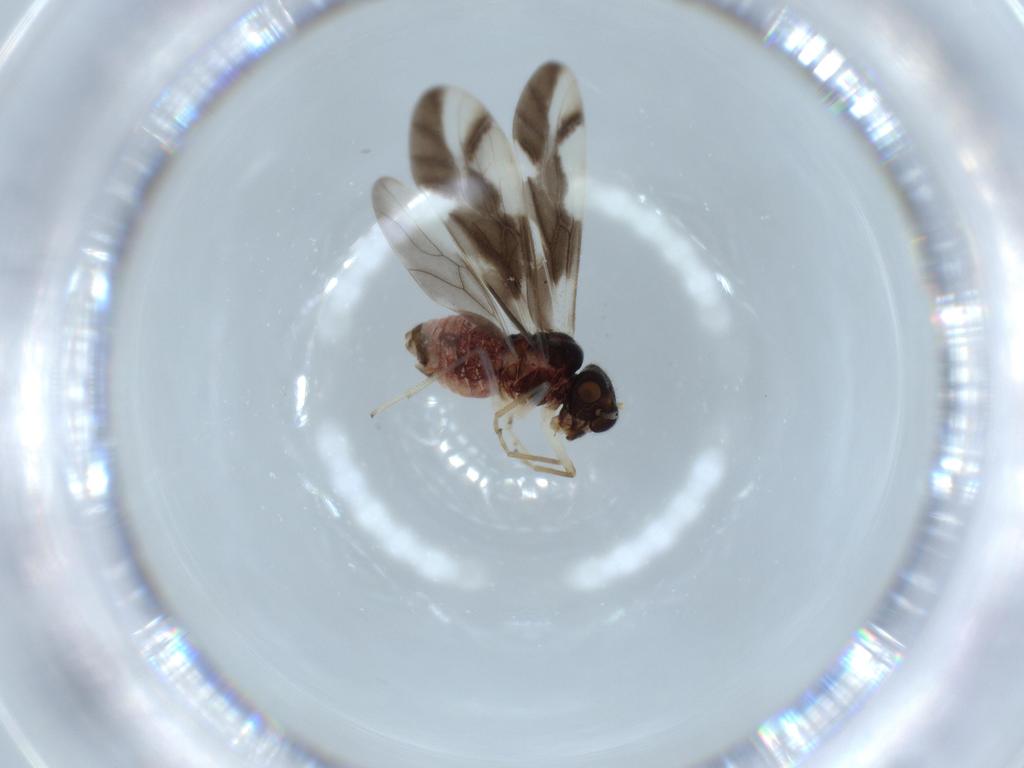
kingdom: Animalia
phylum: Arthropoda
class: Insecta
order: Psocodea
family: Caeciliusidae
